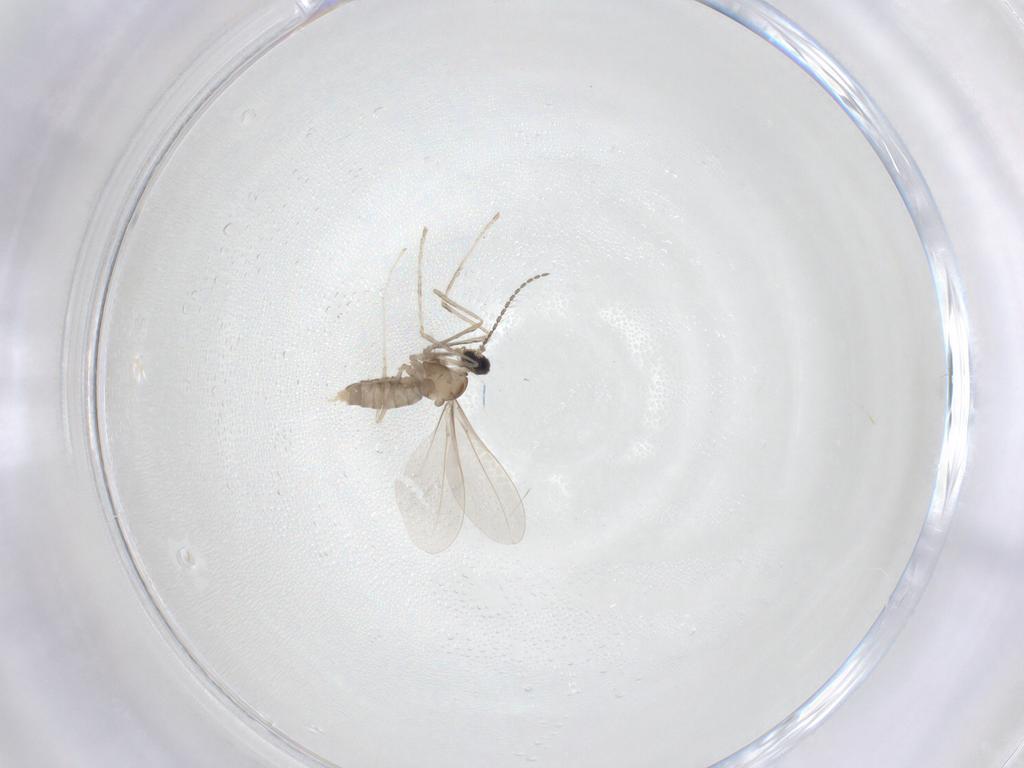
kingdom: Animalia
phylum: Arthropoda
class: Insecta
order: Diptera
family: Cecidomyiidae
